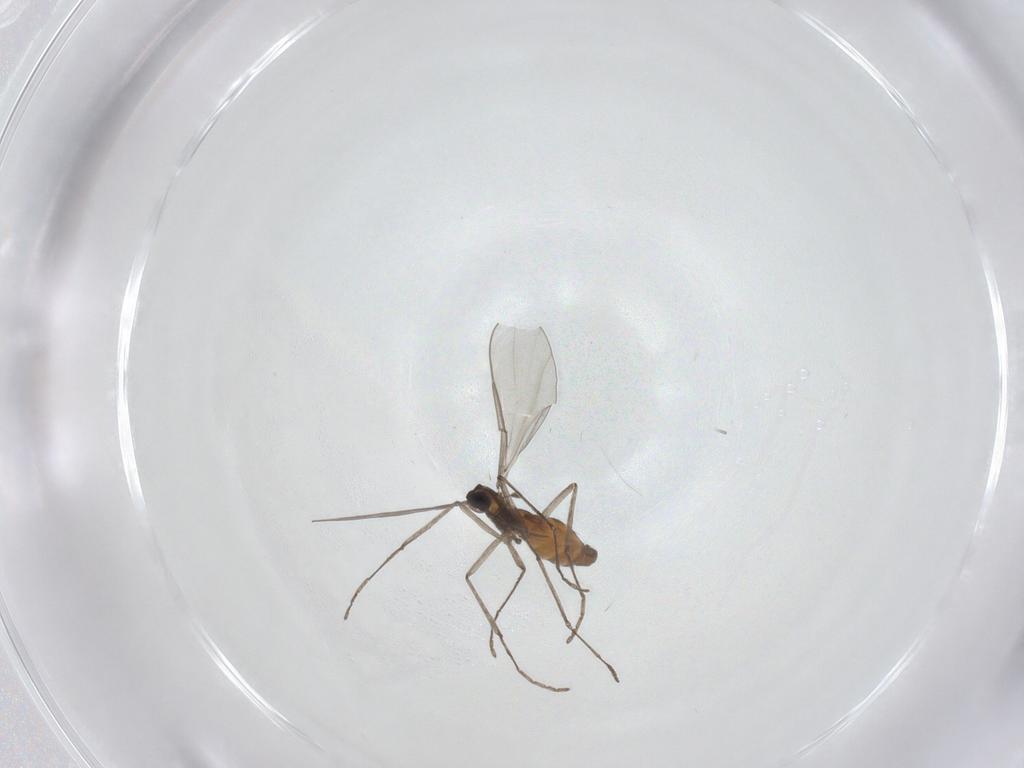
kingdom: Animalia
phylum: Arthropoda
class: Insecta
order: Diptera
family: Cecidomyiidae
